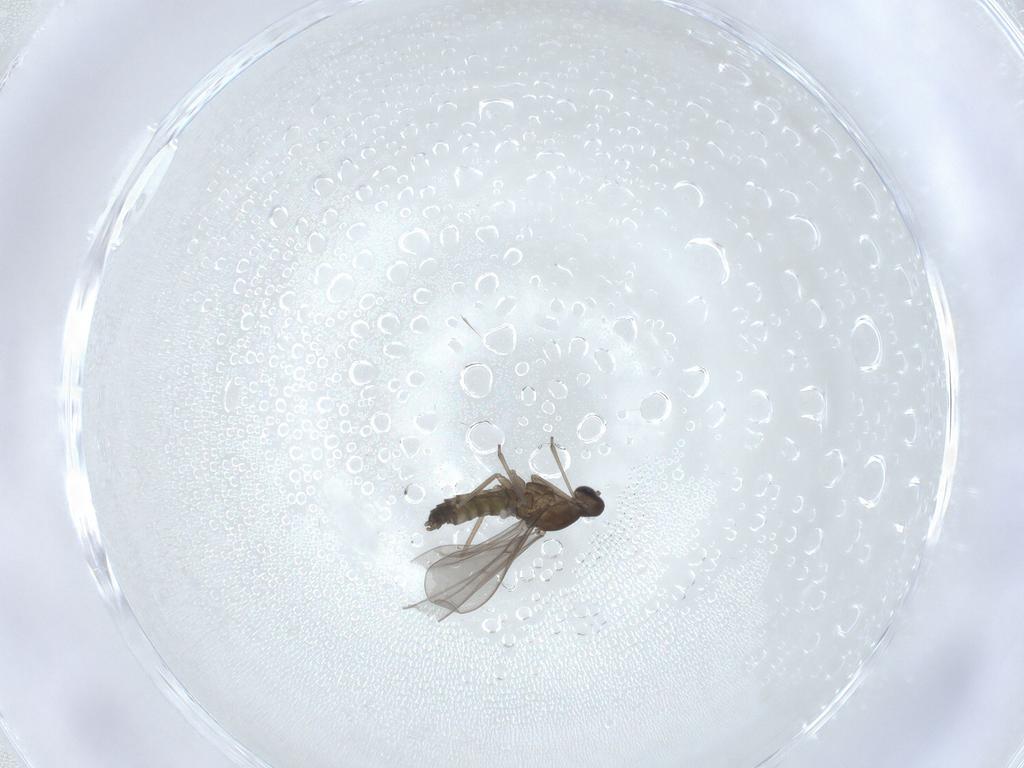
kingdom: Animalia
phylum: Arthropoda
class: Insecta
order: Diptera
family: Cecidomyiidae
